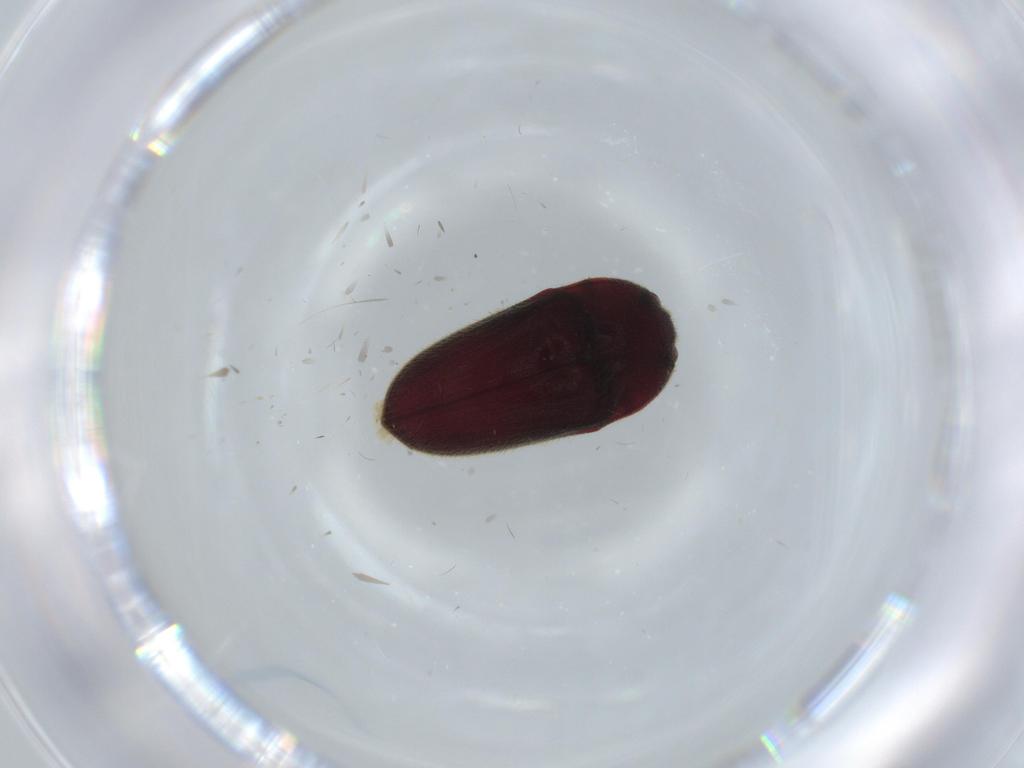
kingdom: Animalia
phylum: Arthropoda
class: Insecta
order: Coleoptera
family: Throscidae
